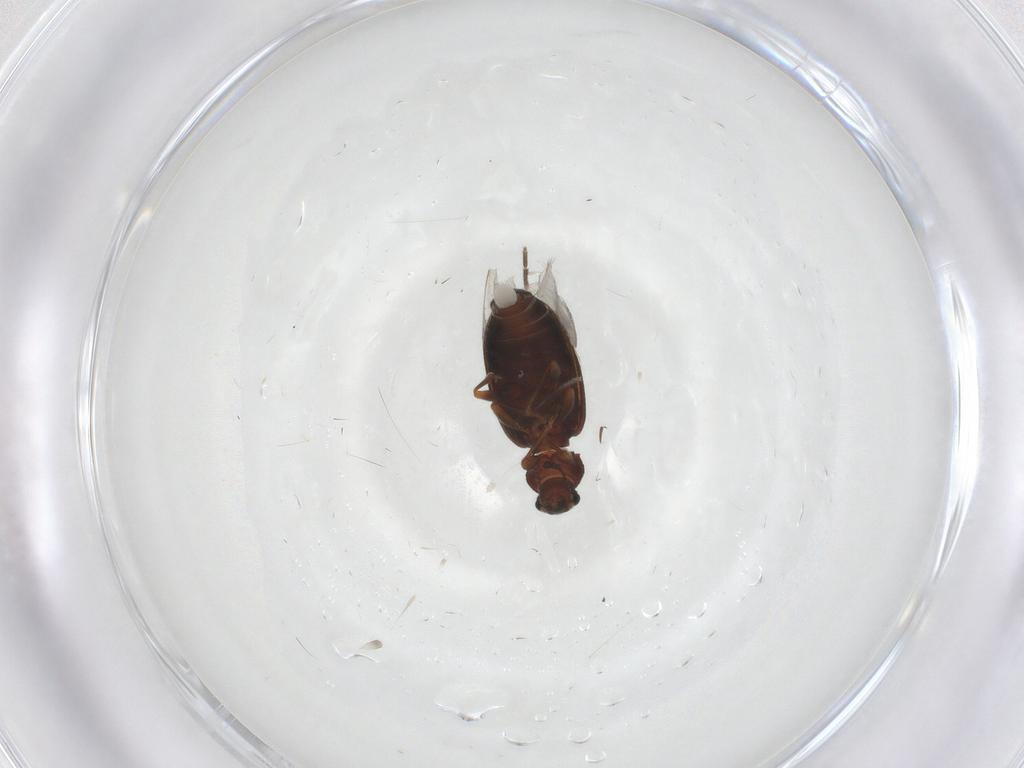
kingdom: Animalia
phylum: Arthropoda
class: Insecta
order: Coleoptera
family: Latridiidae
